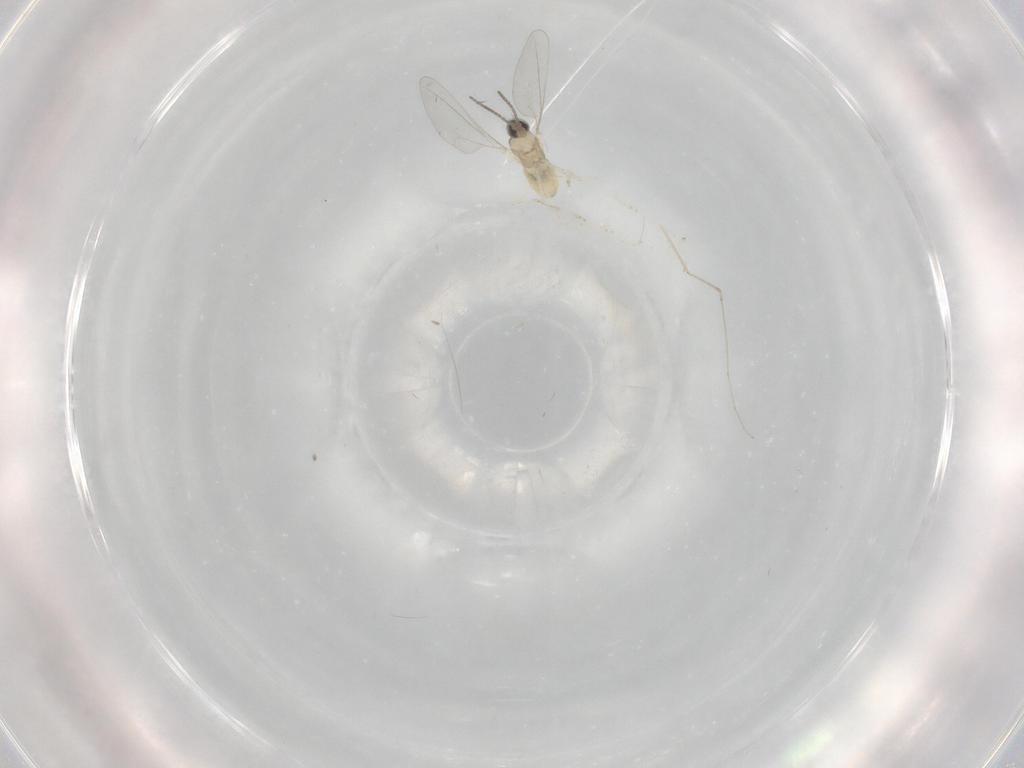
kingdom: Animalia
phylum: Arthropoda
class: Insecta
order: Diptera
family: Cecidomyiidae
